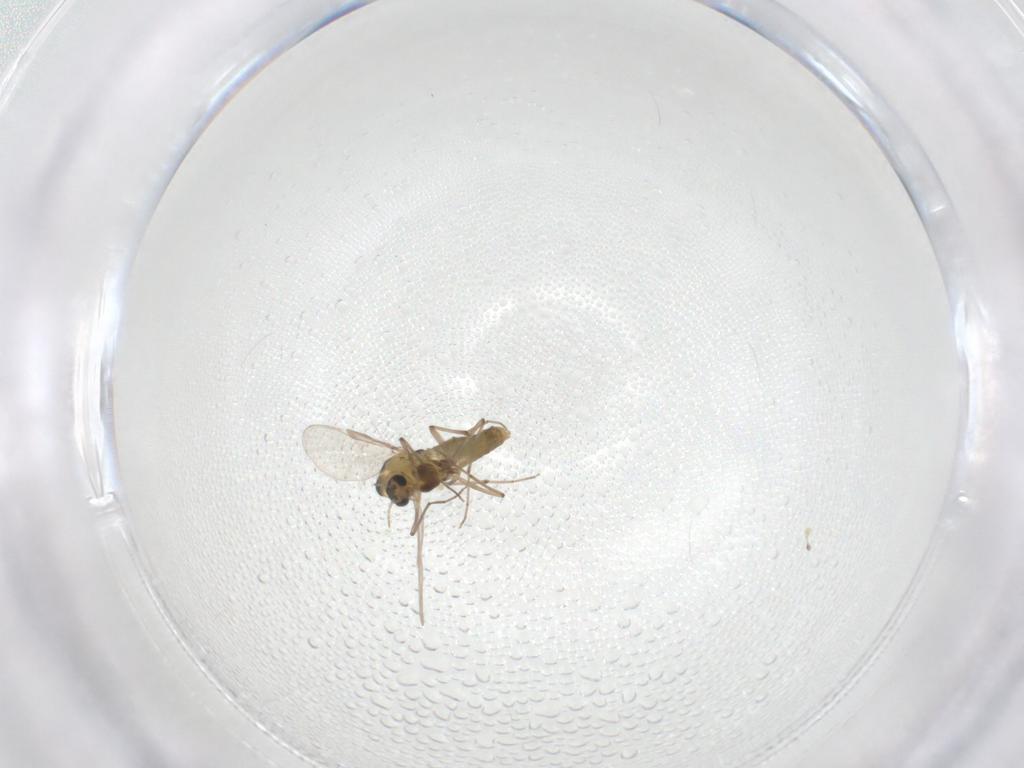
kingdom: Animalia
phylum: Arthropoda
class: Insecta
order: Diptera
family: Chironomidae
